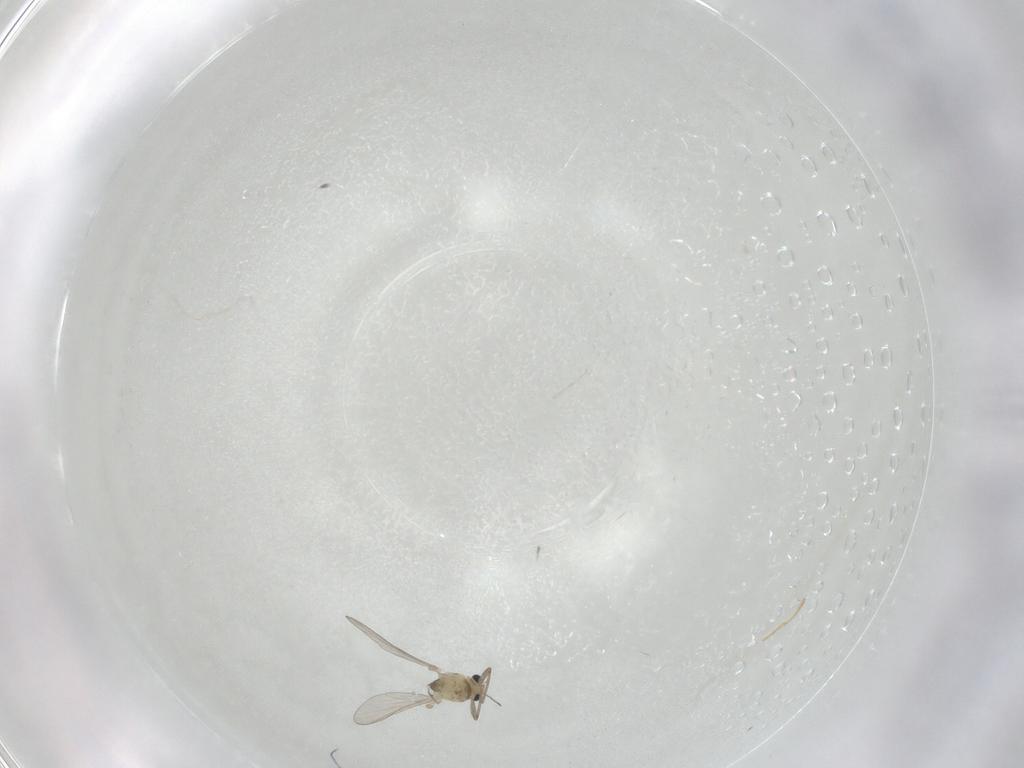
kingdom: Animalia
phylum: Arthropoda
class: Insecta
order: Diptera
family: Chironomidae
